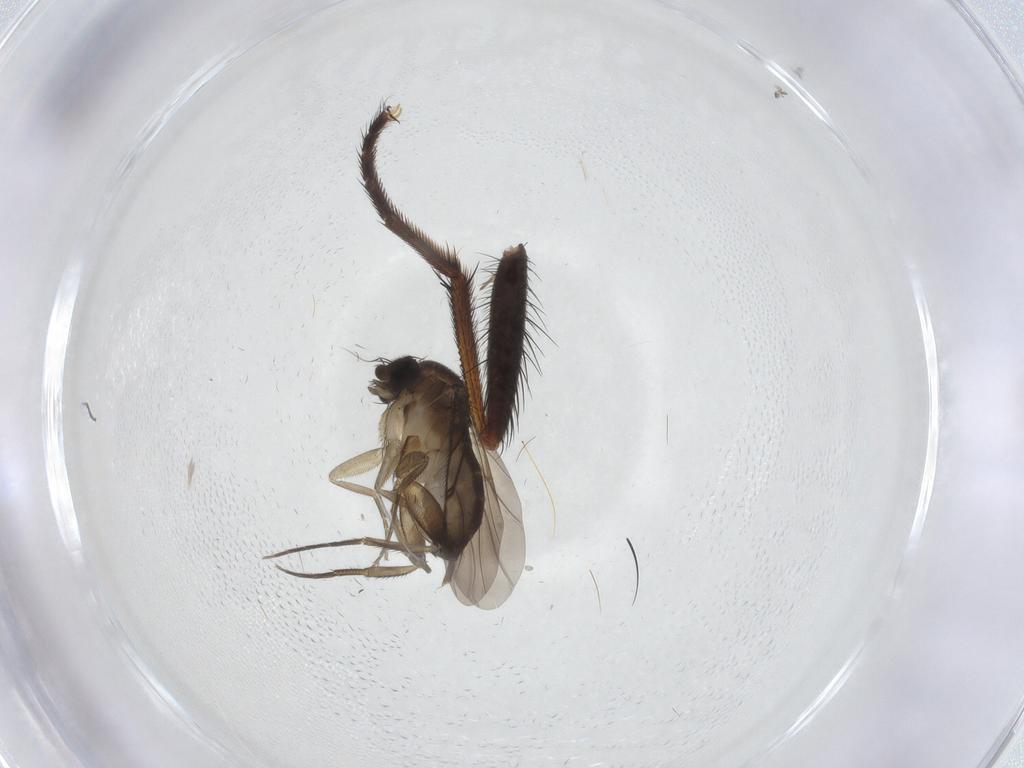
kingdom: Animalia
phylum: Arthropoda
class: Insecta
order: Diptera
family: Phoridae
